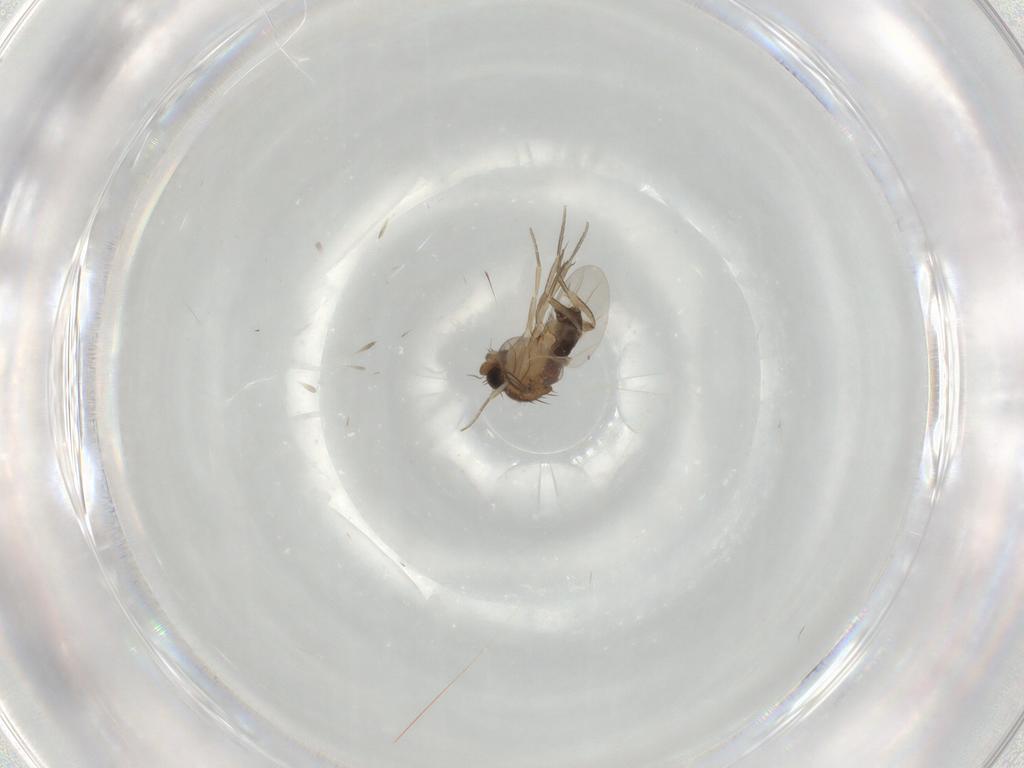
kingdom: Animalia
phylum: Arthropoda
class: Insecta
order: Diptera
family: Phoridae
